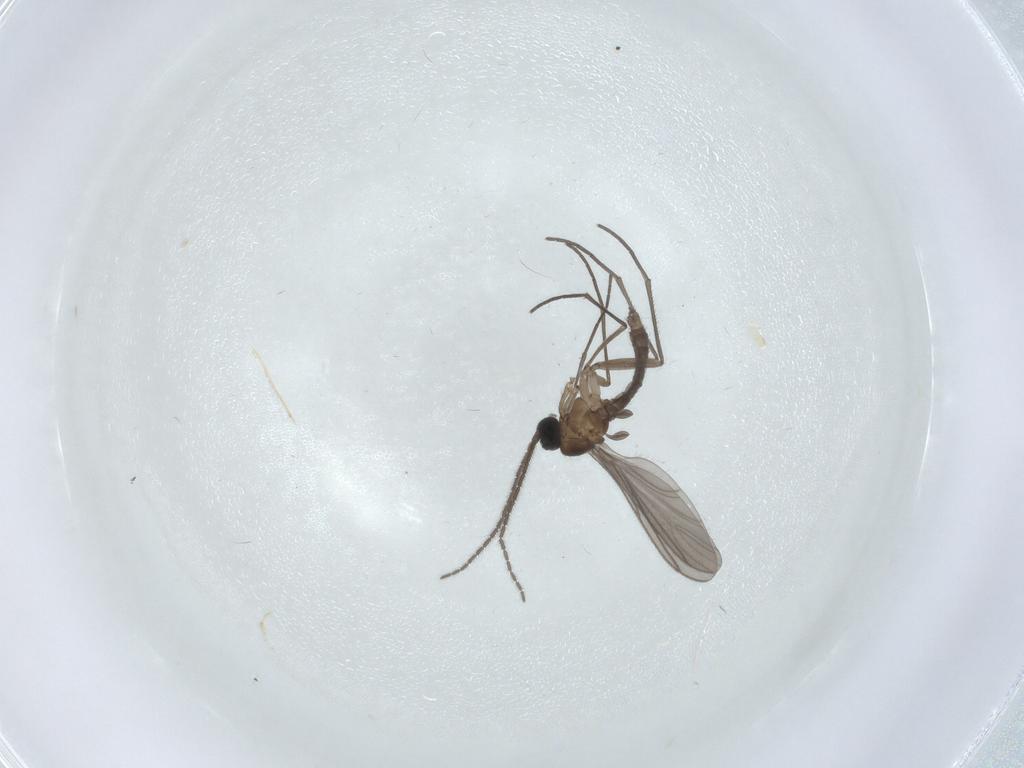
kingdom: Animalia
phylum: Arthropoda
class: Insecta
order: Diptera
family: Sciaridae
